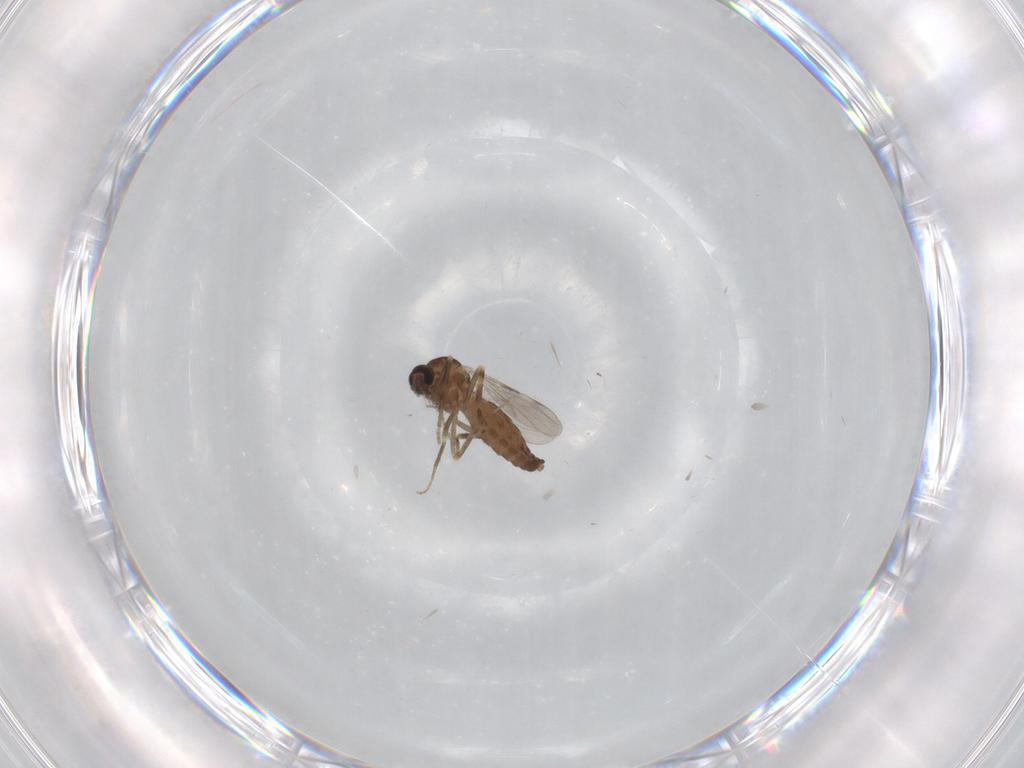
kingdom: Animalia
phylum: Arthropoda
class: Insecta
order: Diptera
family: Ceratopogonidae
